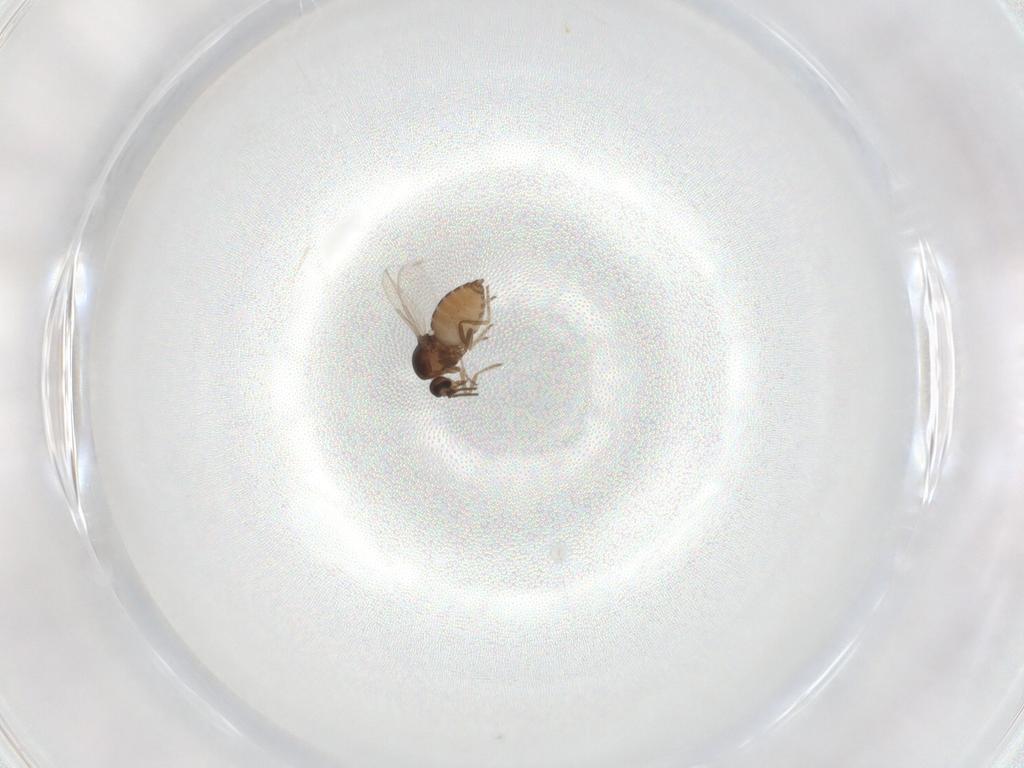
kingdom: Animalia
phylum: Arthropoda
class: Insecta
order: Diptera
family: Ceratopogonidae
